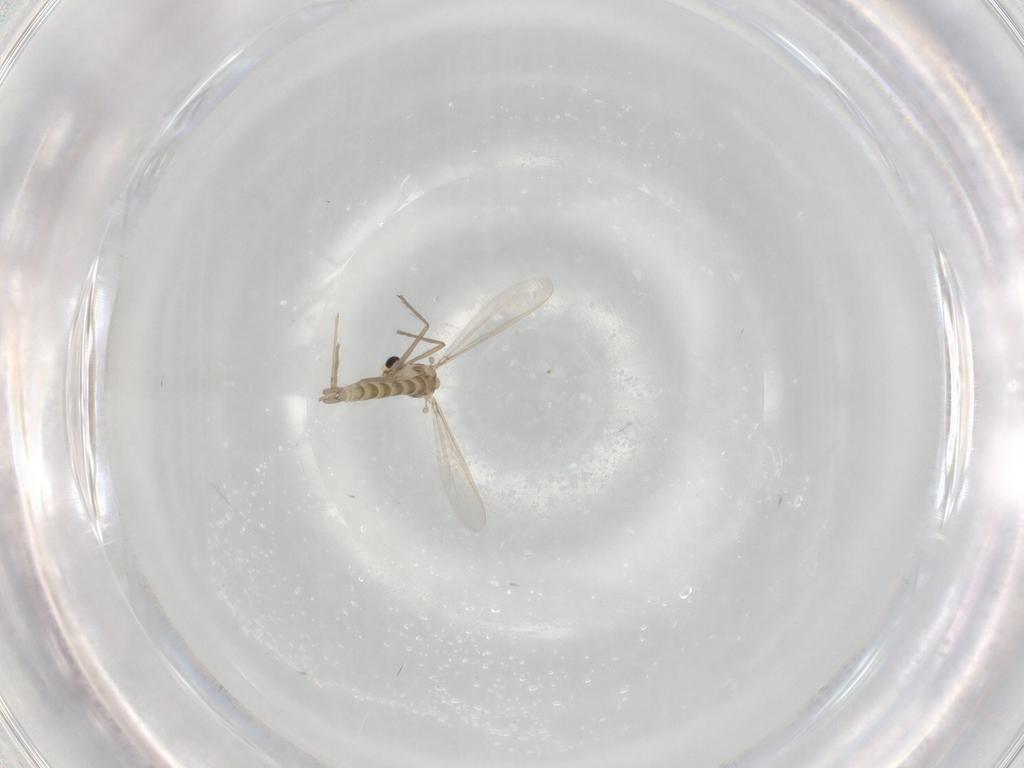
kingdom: Animalia
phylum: Arthropoda
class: Insecta
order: Diptera
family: Chironomidae
